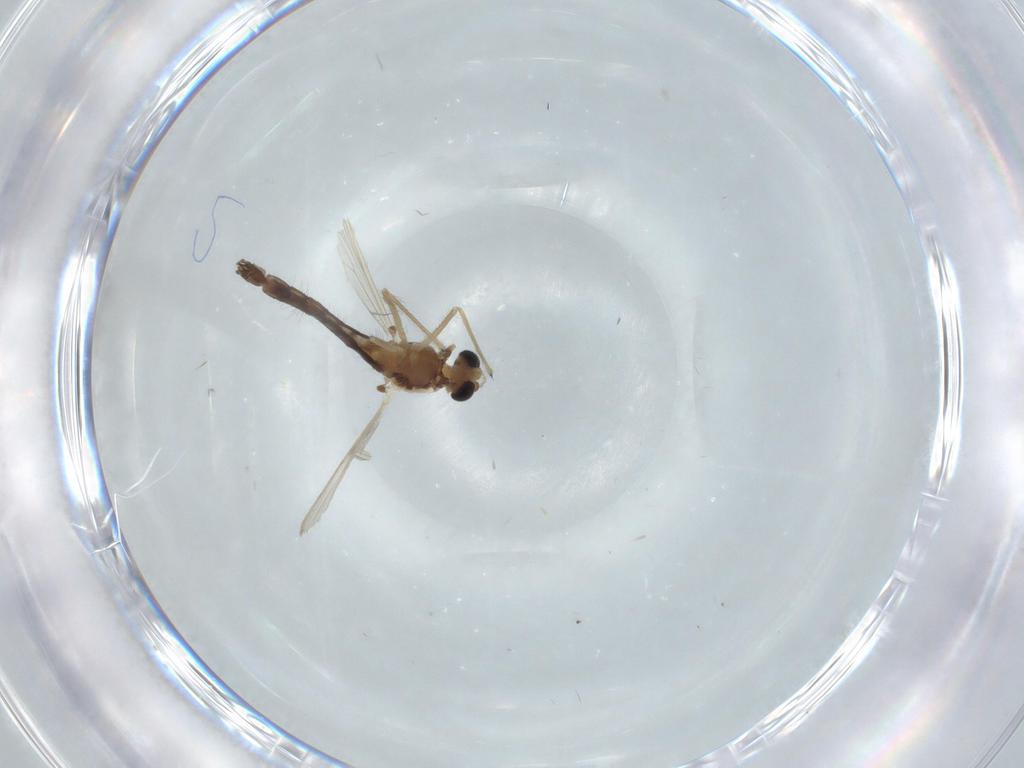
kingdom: Animalia
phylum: Arthropoda
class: Insecta
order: Diptera
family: Chironomidae
